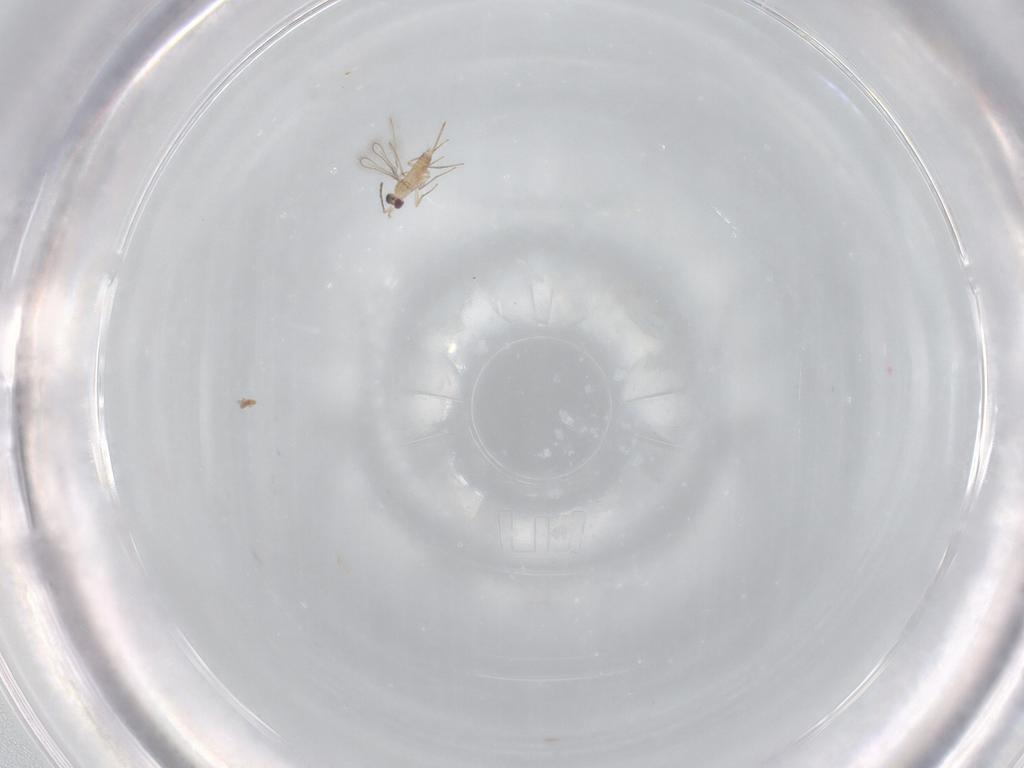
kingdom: Animalia
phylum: Arthropoda
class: Insecta
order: Hymenoptera
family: Mymaridae
